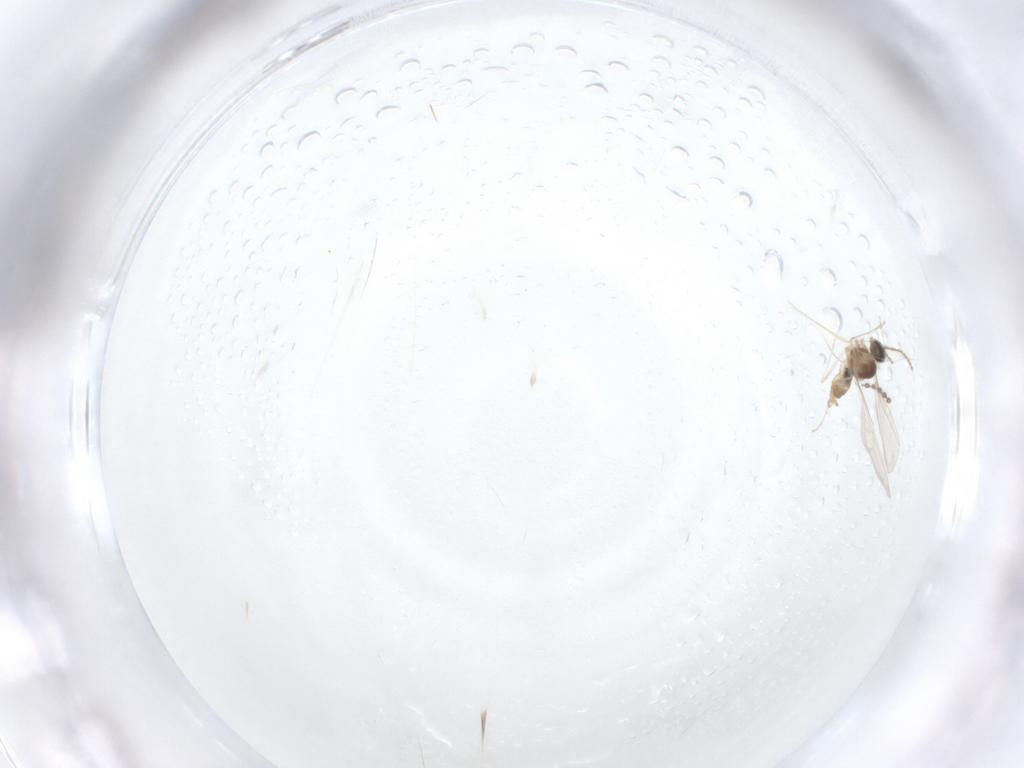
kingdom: Animalia
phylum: Arthropoda
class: Insecta
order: Diptera
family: Cecidomyiidae
